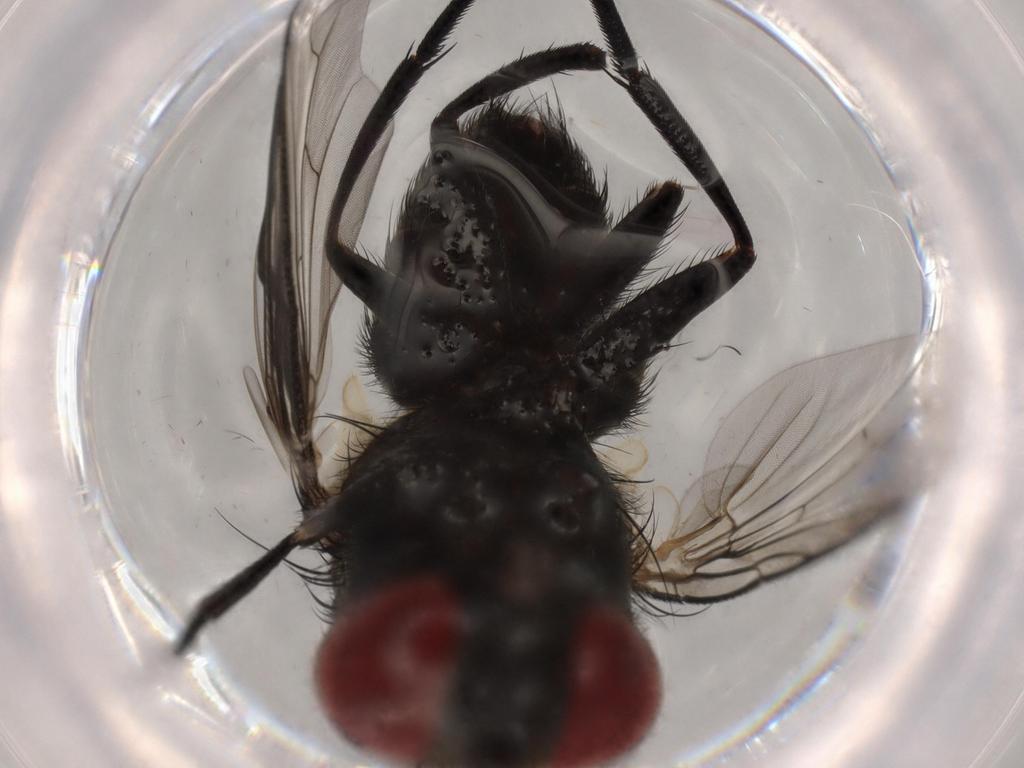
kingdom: Animalia
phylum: Arthropoda
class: Insecta
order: Diptera
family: Cecidomyiidae
